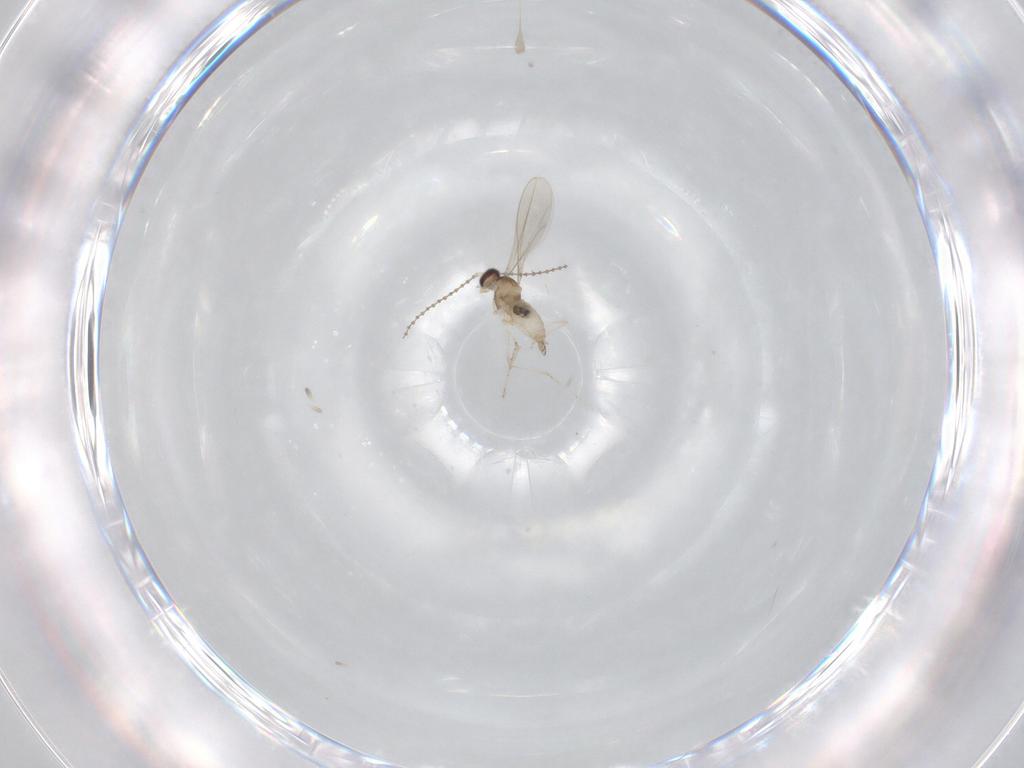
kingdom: Animalia
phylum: Arthropoda
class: Insecta
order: Diptera
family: Cecidomyiidae
